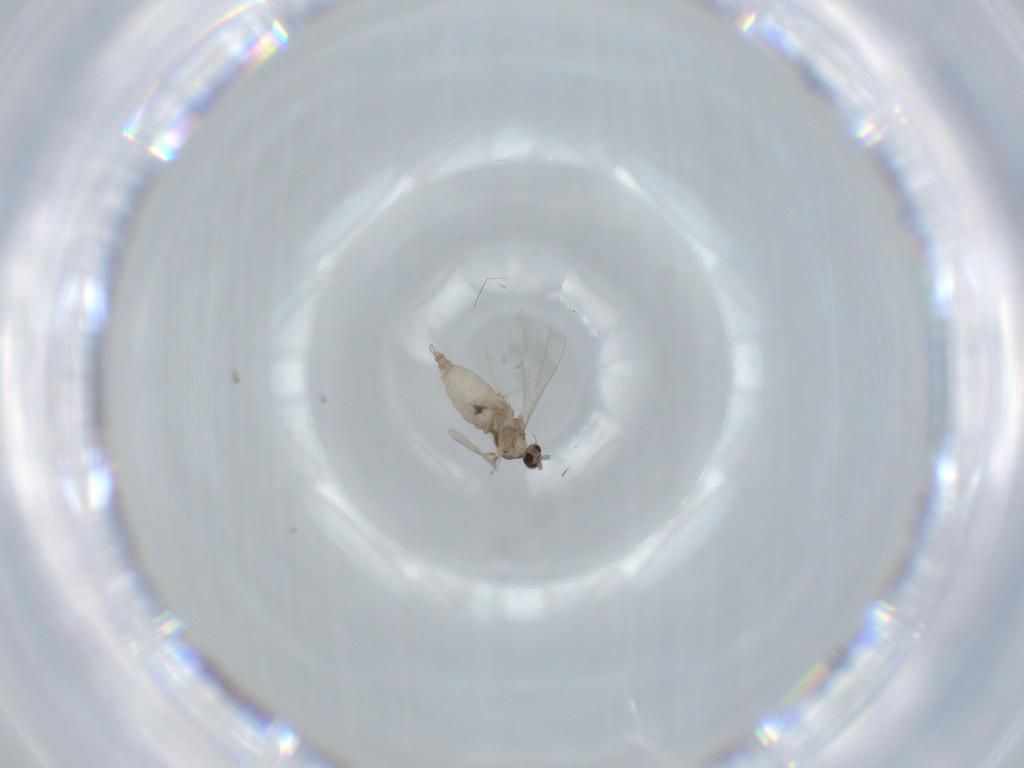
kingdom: Animalia
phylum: Arthropoda
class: Insecta
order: Diptera
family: Cecidomyiidae
